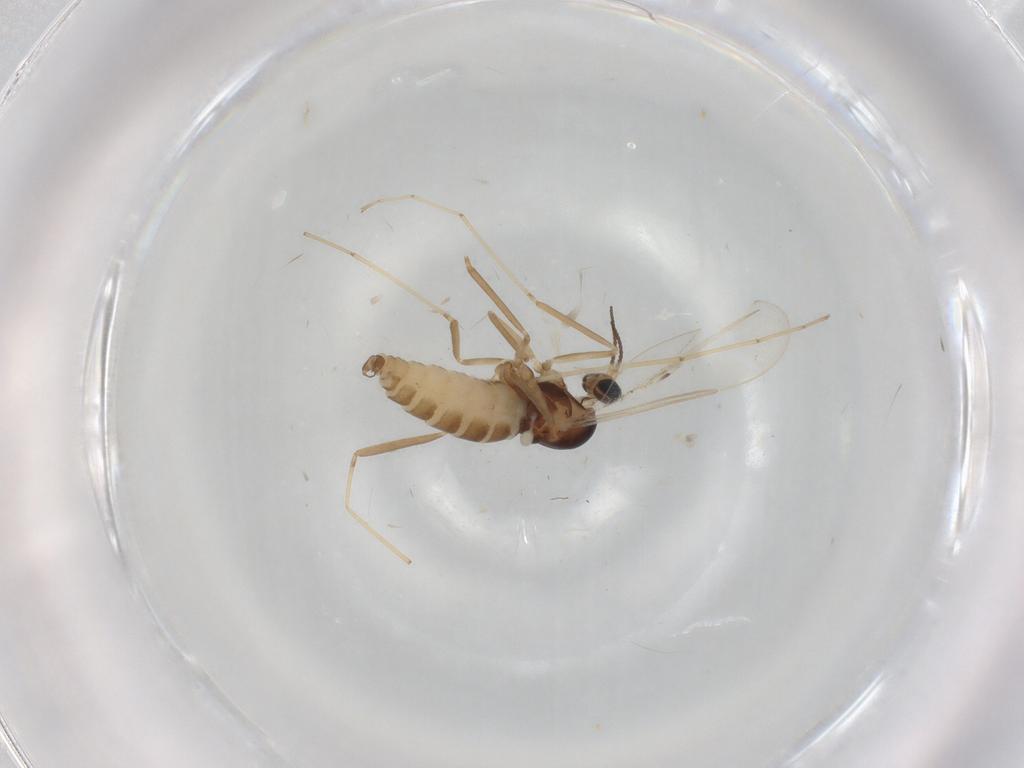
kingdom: Animalia
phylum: Arthropoda
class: Insecta
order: Diptera
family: Cecidomyiidae
